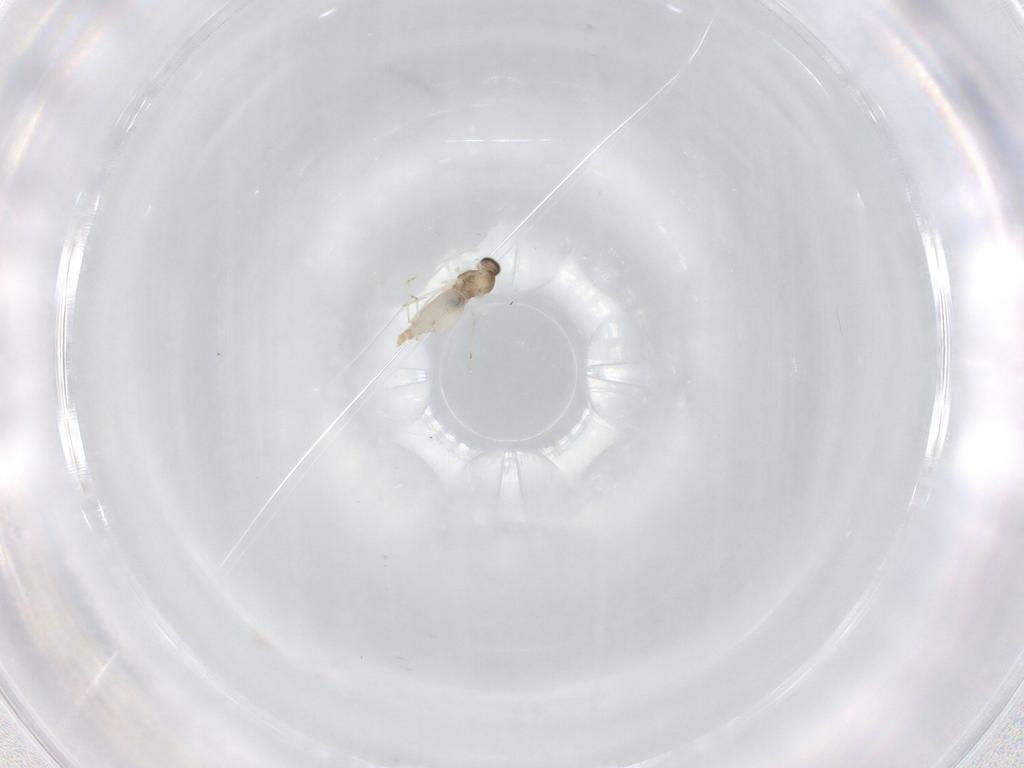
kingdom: Animalia
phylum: Arthropoda
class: Insecta
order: Diptera
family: Cecidomyiidae
